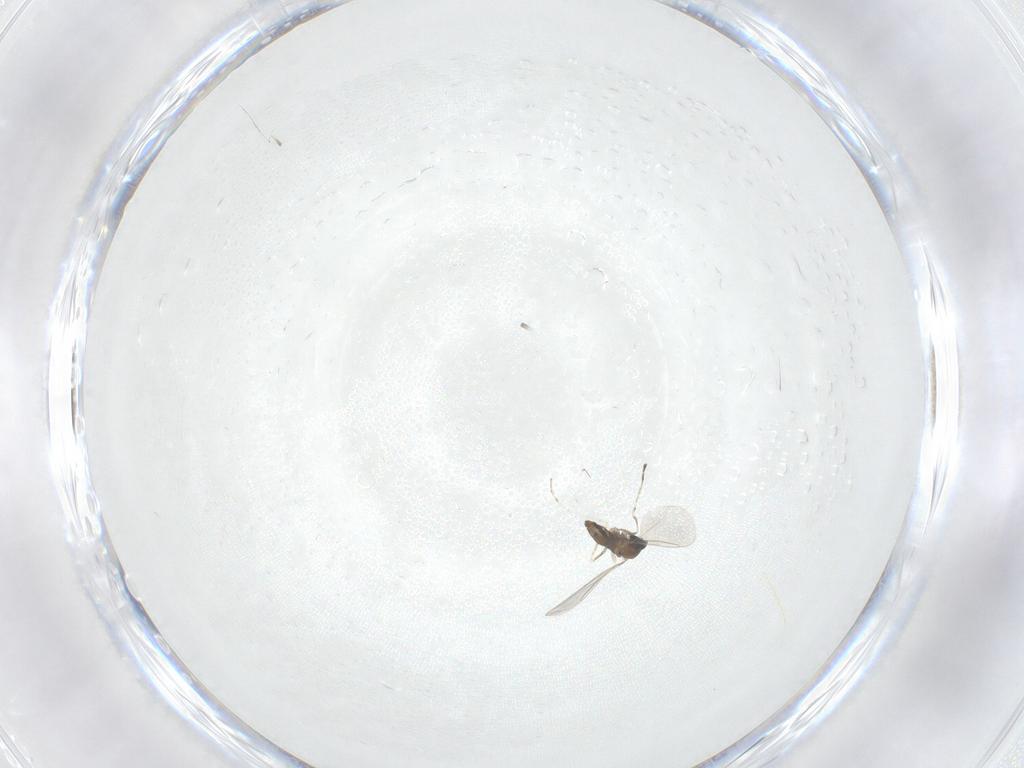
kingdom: Animalia
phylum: Arthropoda
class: Insecta
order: Diptera
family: Cecidomyiidae
